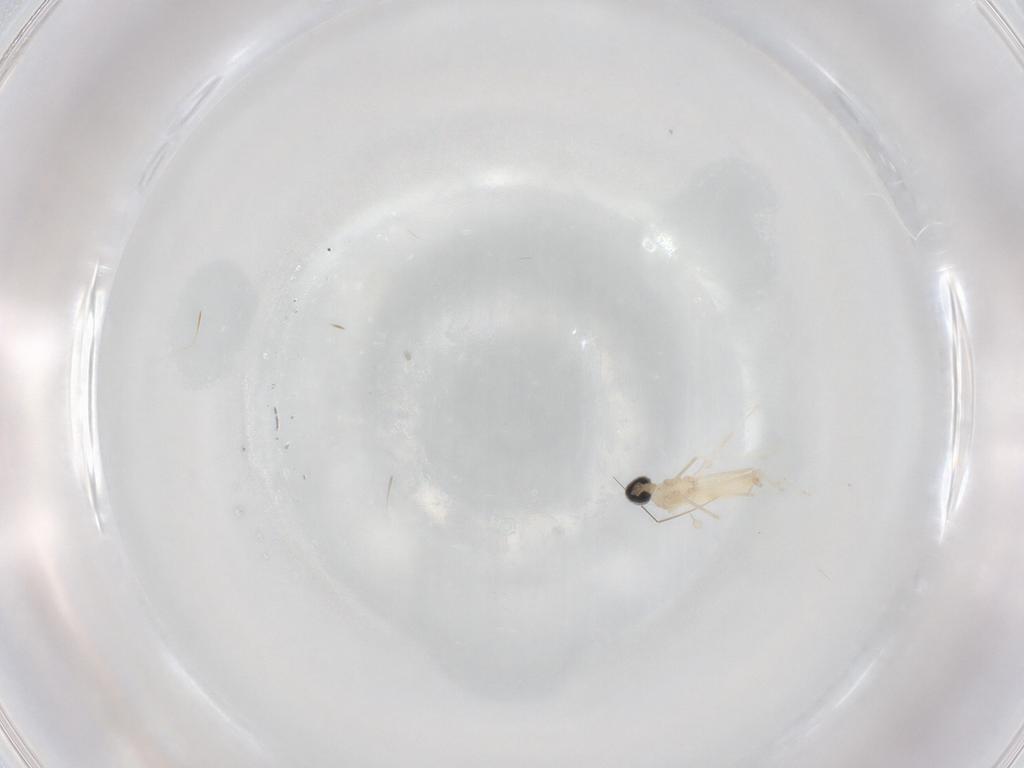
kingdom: Animalia
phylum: Arthropoda
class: Insecta
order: Diptera
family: Cecidomyiidae
